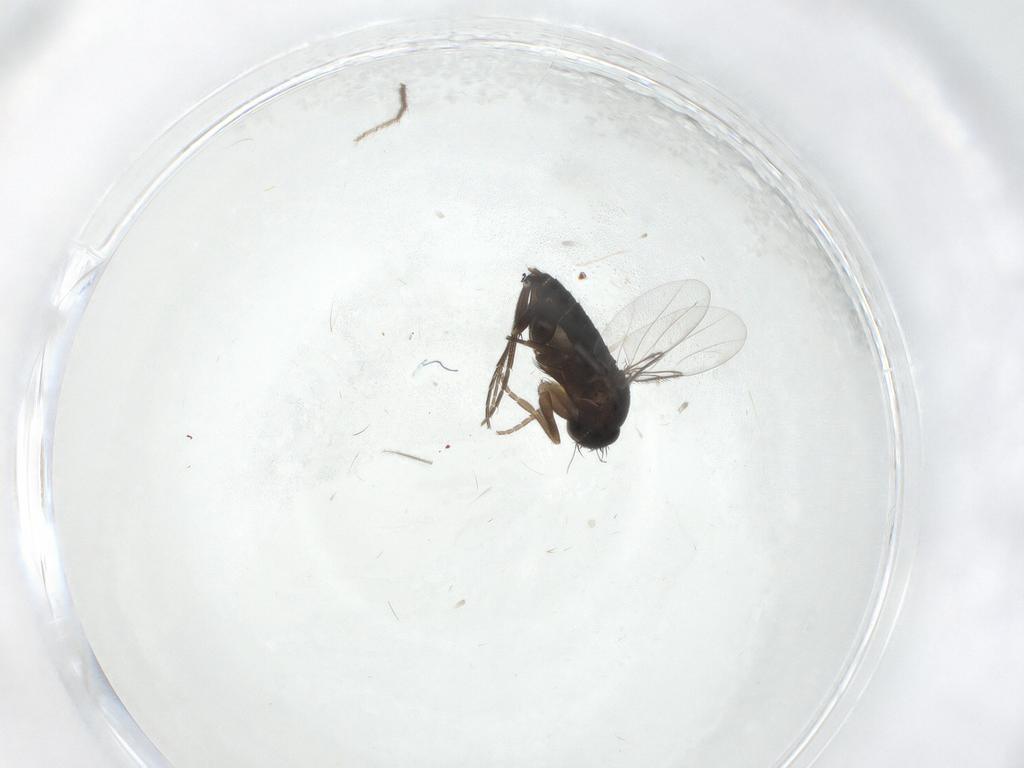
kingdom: Animalia
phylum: Arthropoda
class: Insecta
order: Diptera
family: Phoridae
